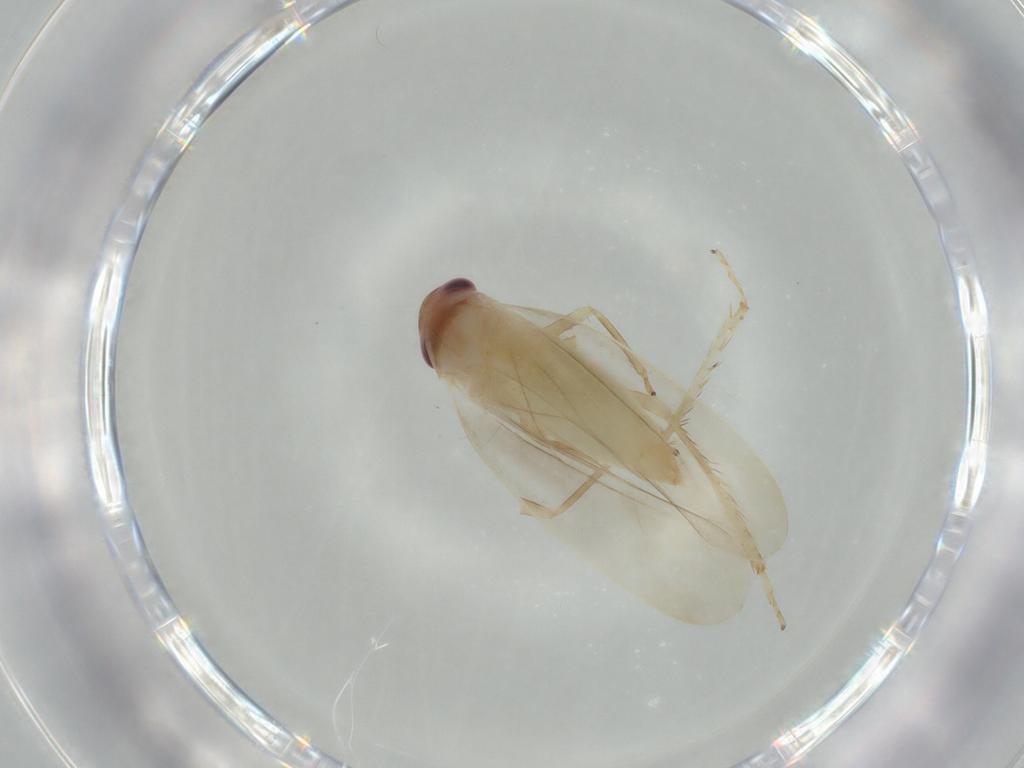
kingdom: Animalia
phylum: Arthropoda
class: Insecta
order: Hemiptera
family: Cicadellidae
